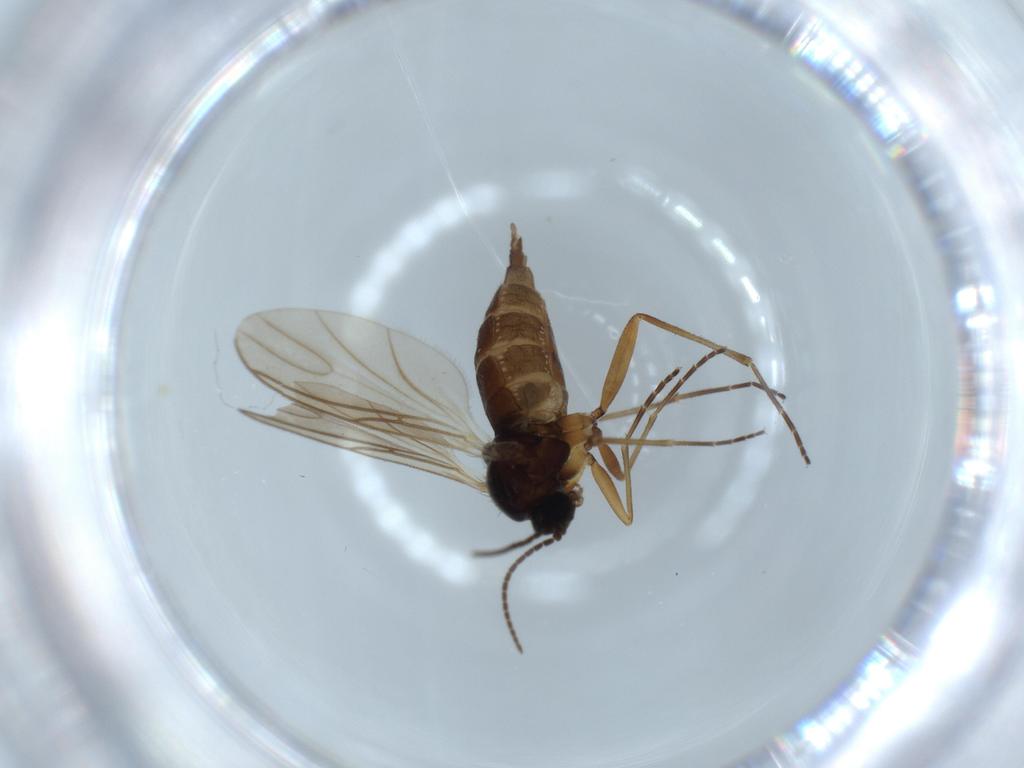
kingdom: Animalia
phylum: Arthropoda
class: Insecta
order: Diptera
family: Sciaridae
